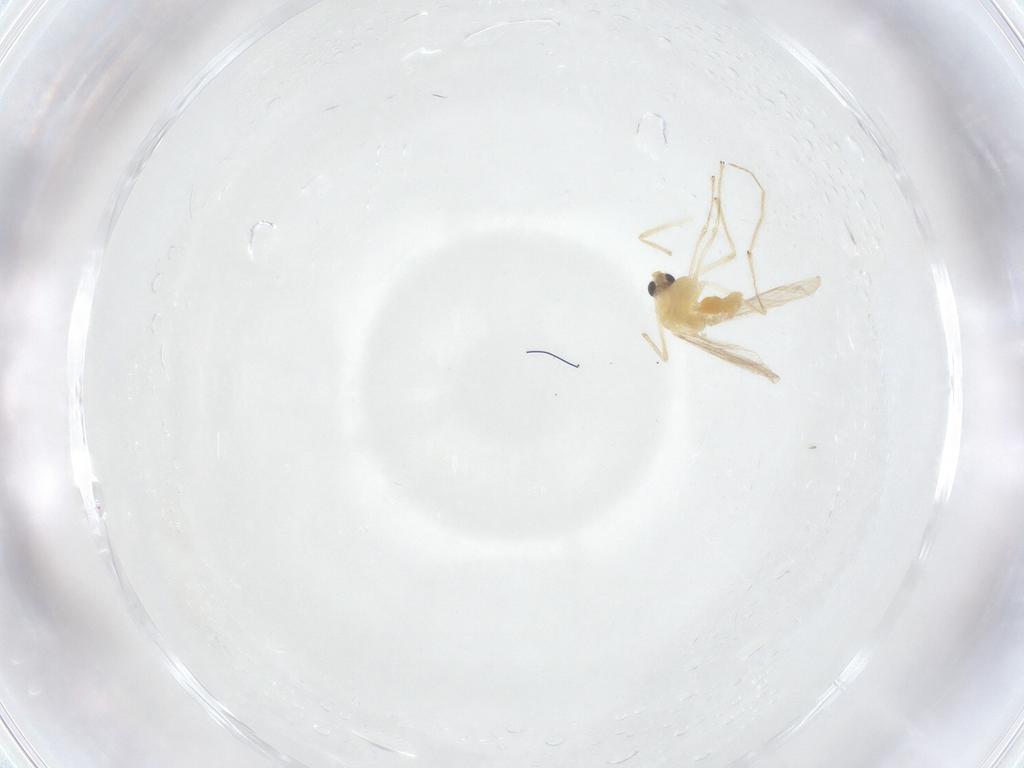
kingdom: Animalia
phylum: Arthropoda
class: Insecta
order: Diptera
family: Chironomidae
